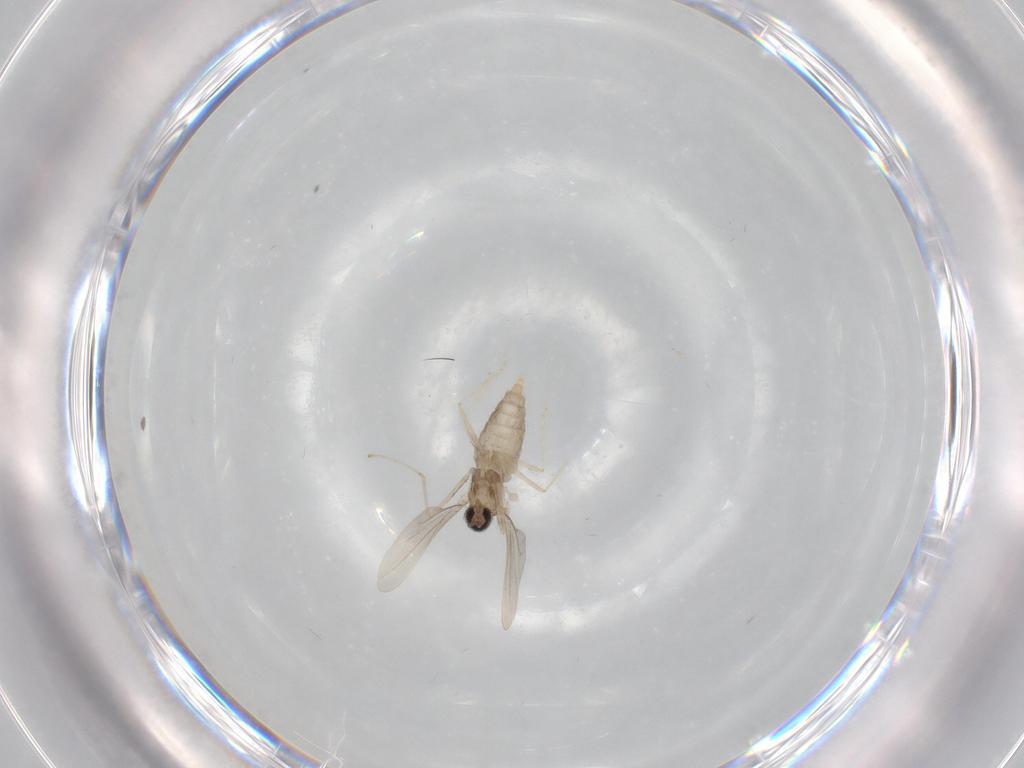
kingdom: Animalia
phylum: Arthropoda
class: Insecta
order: Diptera
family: Cecidomyiidae
